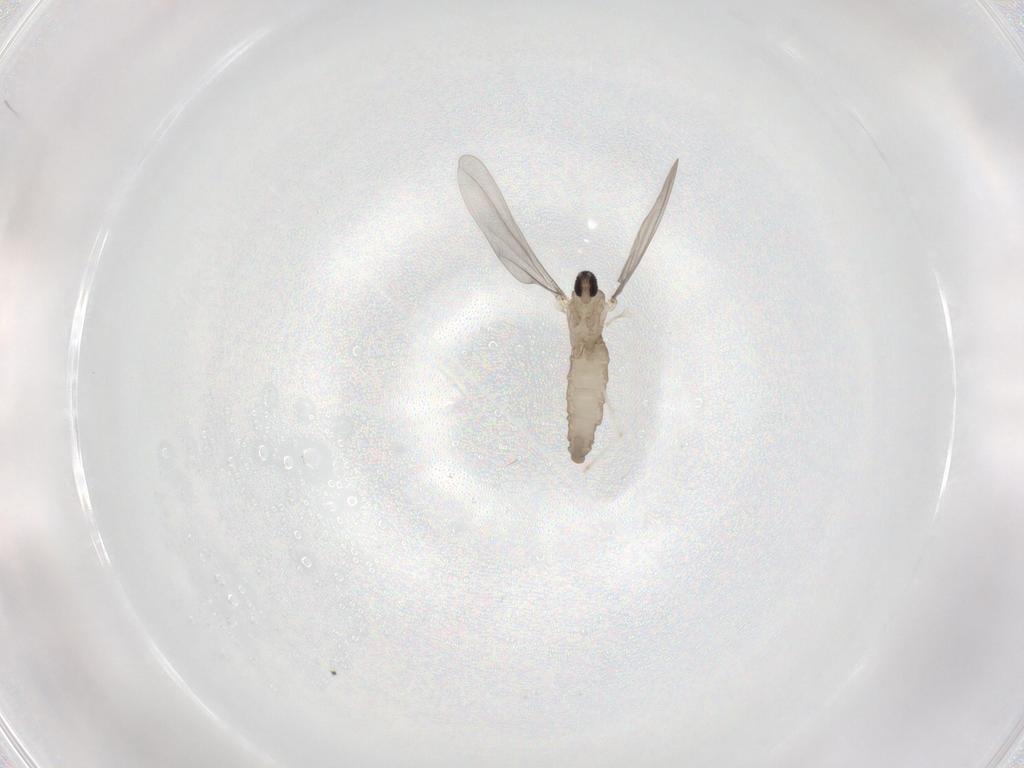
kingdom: Animalia
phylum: Arthropoda
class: Insecta
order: Diptera
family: Cecidomyiidae
